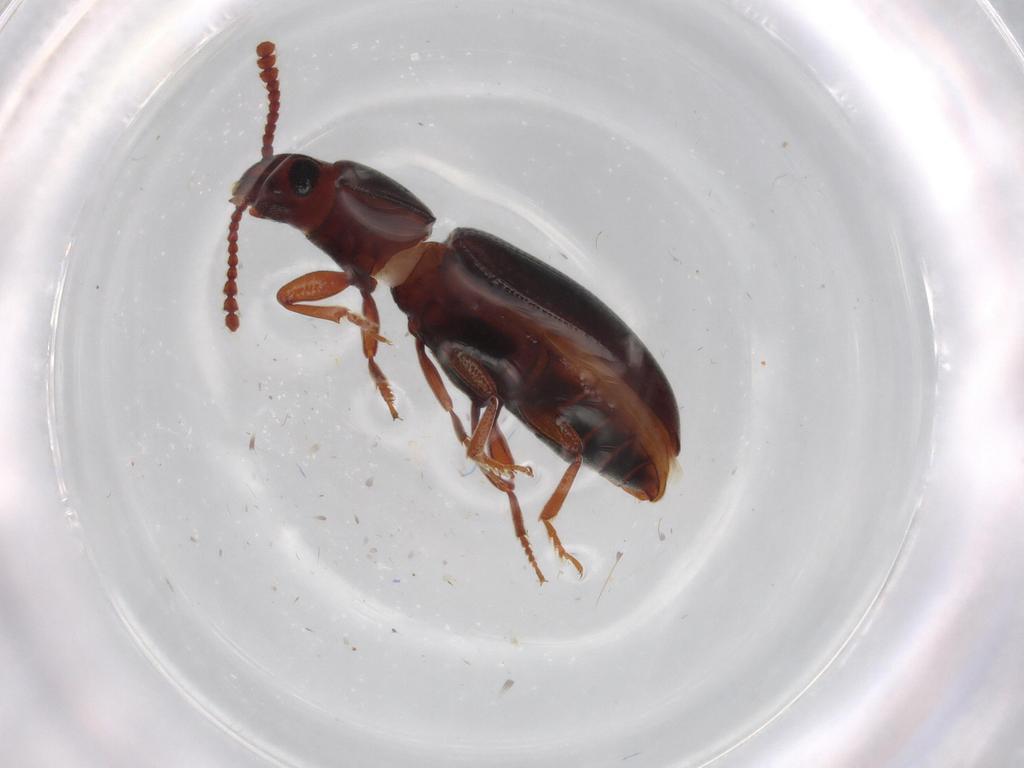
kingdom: Animalia
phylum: Arthropoda
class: Insecta
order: Coleoptera
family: Erotylidae
